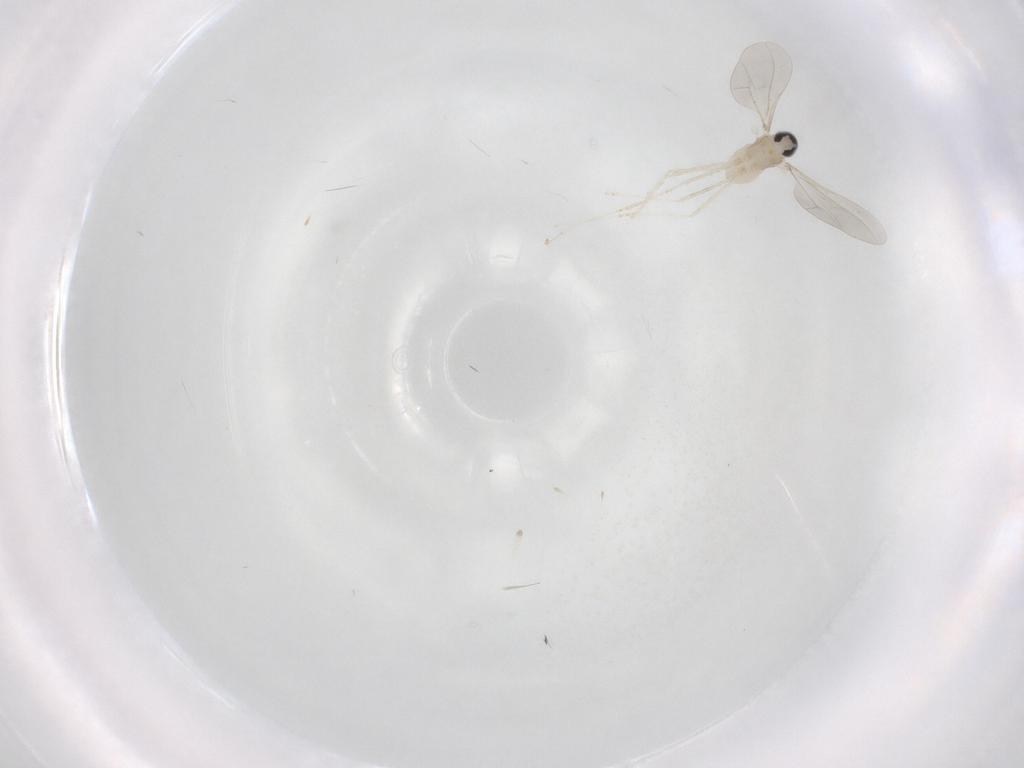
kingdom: Animalia
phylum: Arthropoda
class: Insecta
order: Diptera
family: Cecidomyiidae
